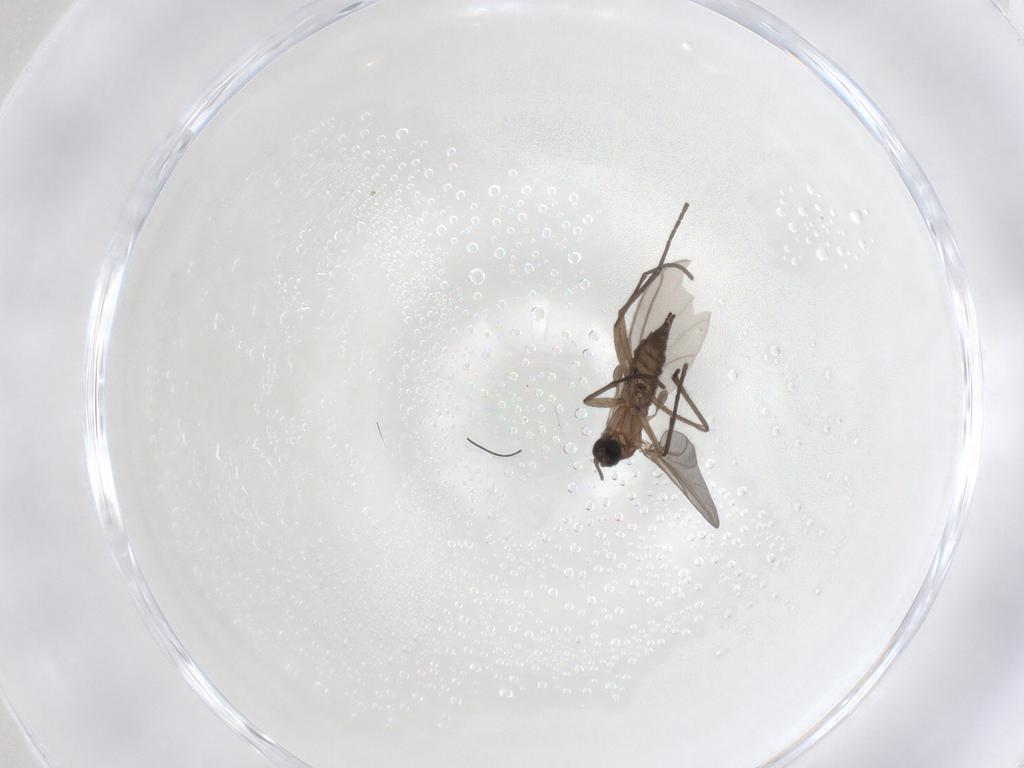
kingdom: Animalia
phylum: Arthropoda
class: Insecta
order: Diptera
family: Sciaridae
